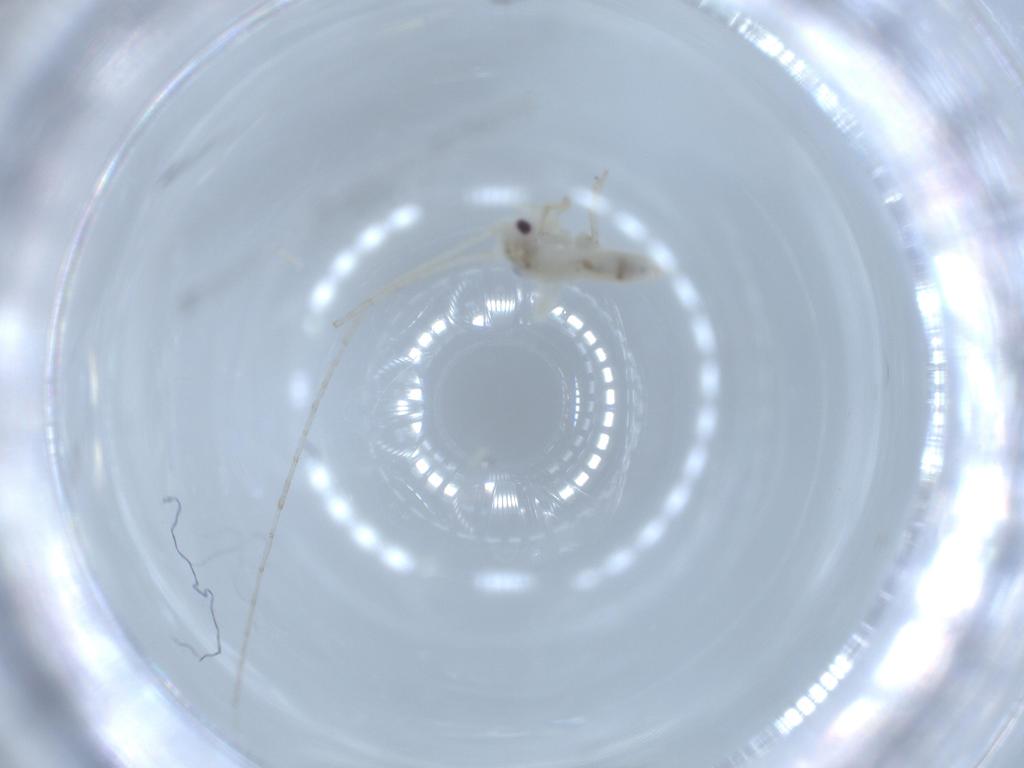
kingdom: Animalia
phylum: Arthropoda
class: Insecta
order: Orthoptera
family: Trigonidiidae
